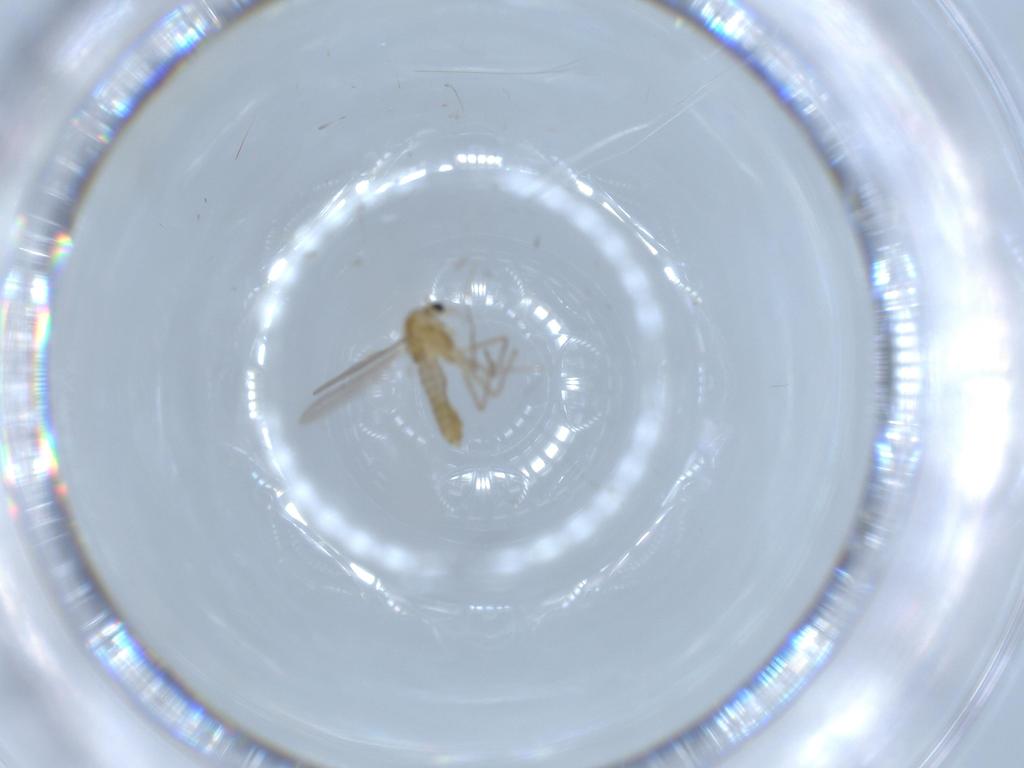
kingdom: Animalia
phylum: Arthropoda
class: Insecta
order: Diptera
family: Chironomidae
